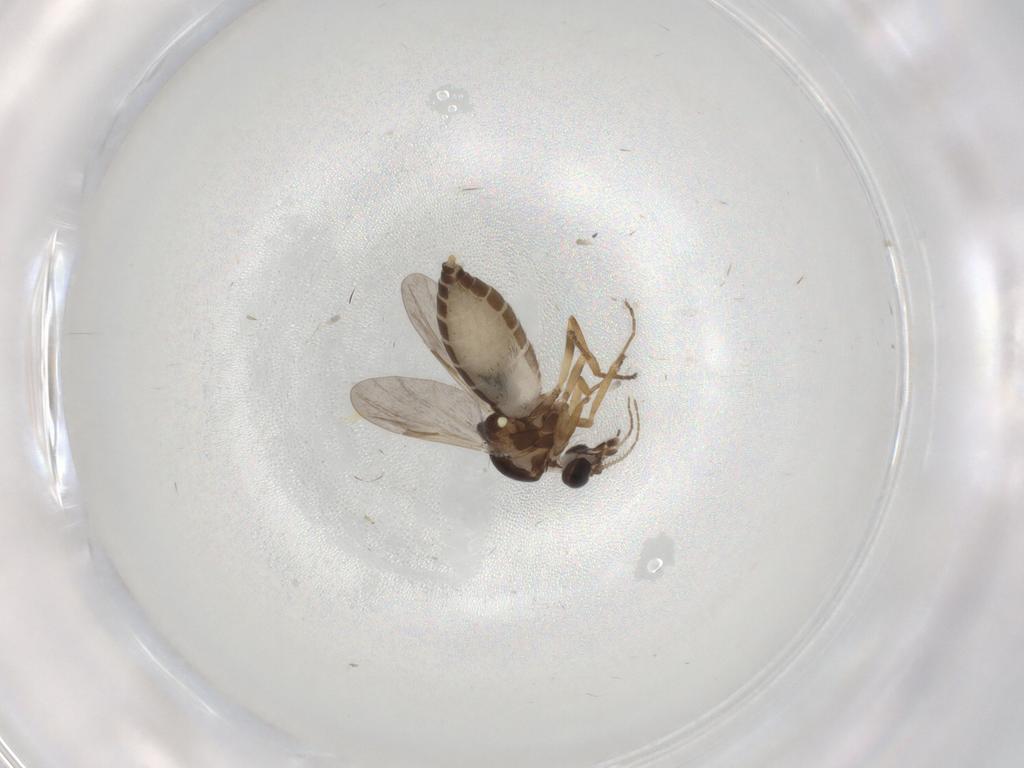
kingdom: Animalia
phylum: Arthropoda
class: Insecta
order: Diptera
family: Ceratopogonidae
